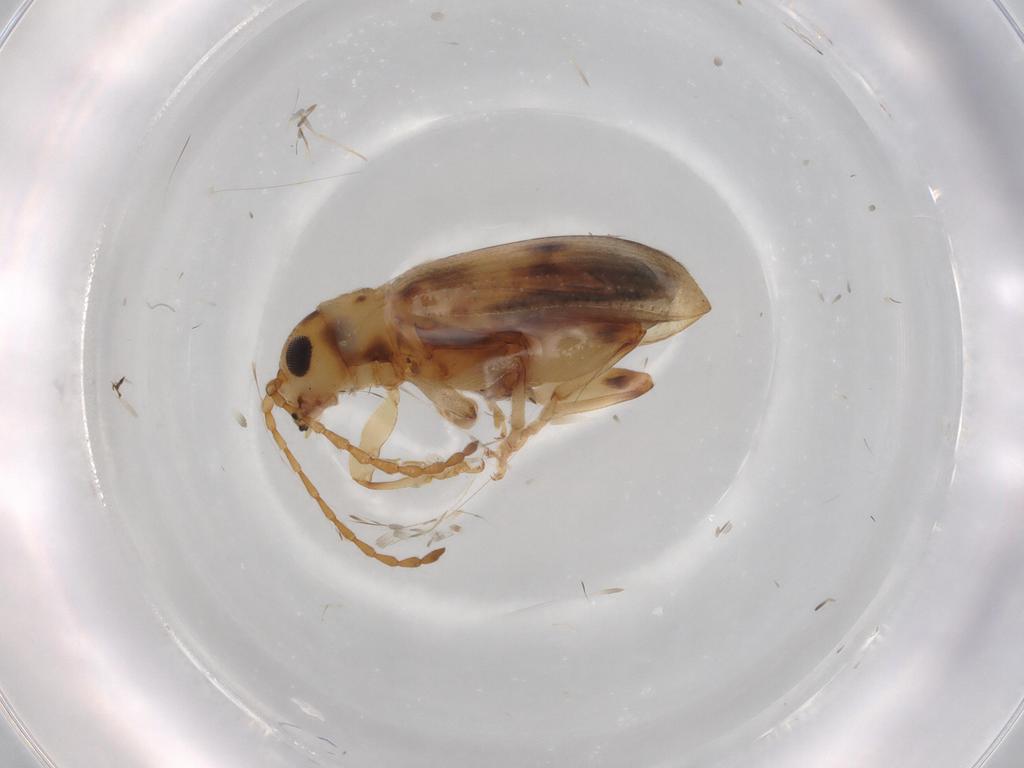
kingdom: Animalia
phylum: Arthropoda
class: Insecta
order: Coleoptera
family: Chrysomelidae
